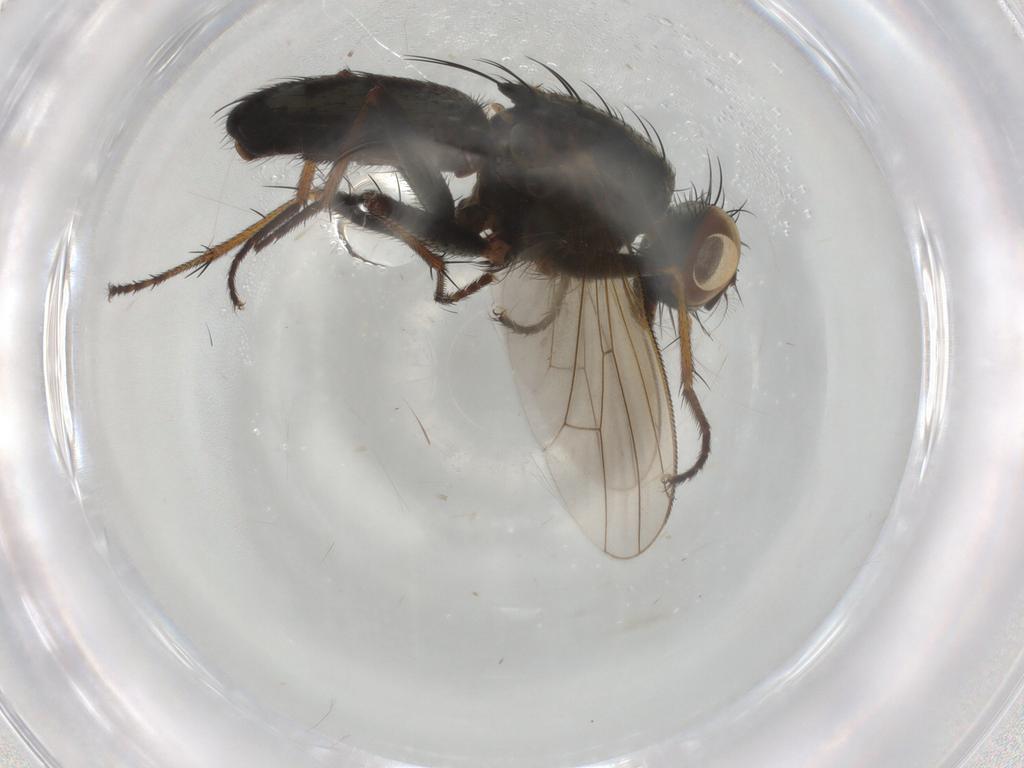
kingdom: Animalia
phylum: Arthropoda
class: Insecta
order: Diptera
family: Muscidae
